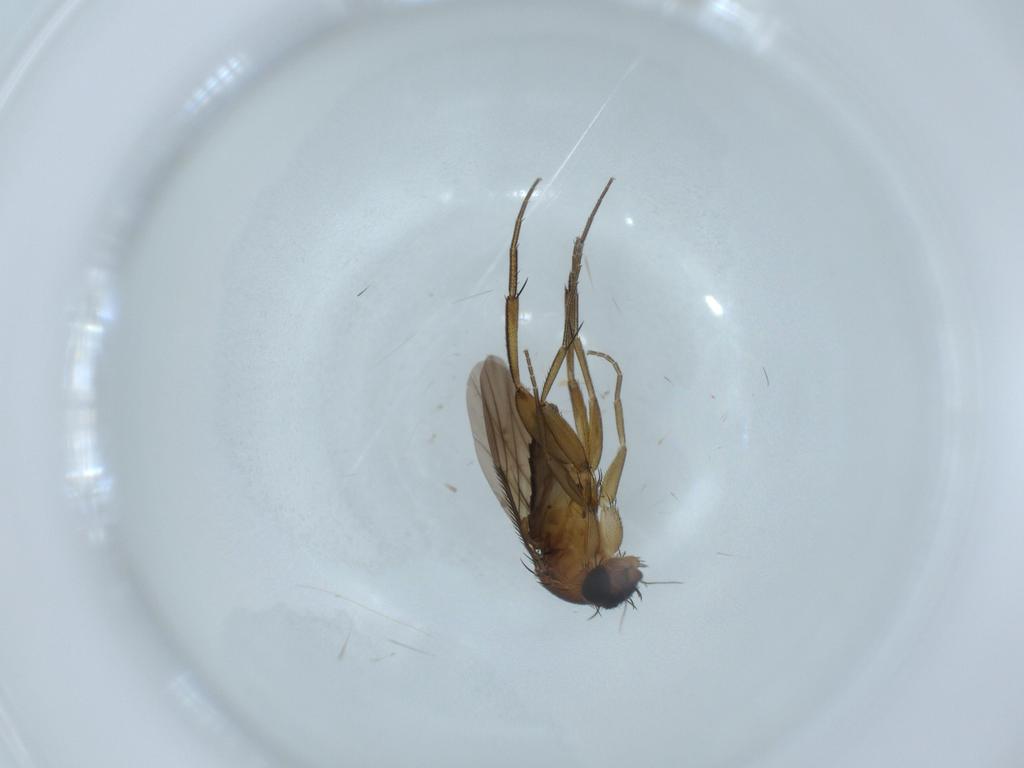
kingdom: Animalia
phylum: Arthropoda
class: Insecta
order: Diptera
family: Phoridae
